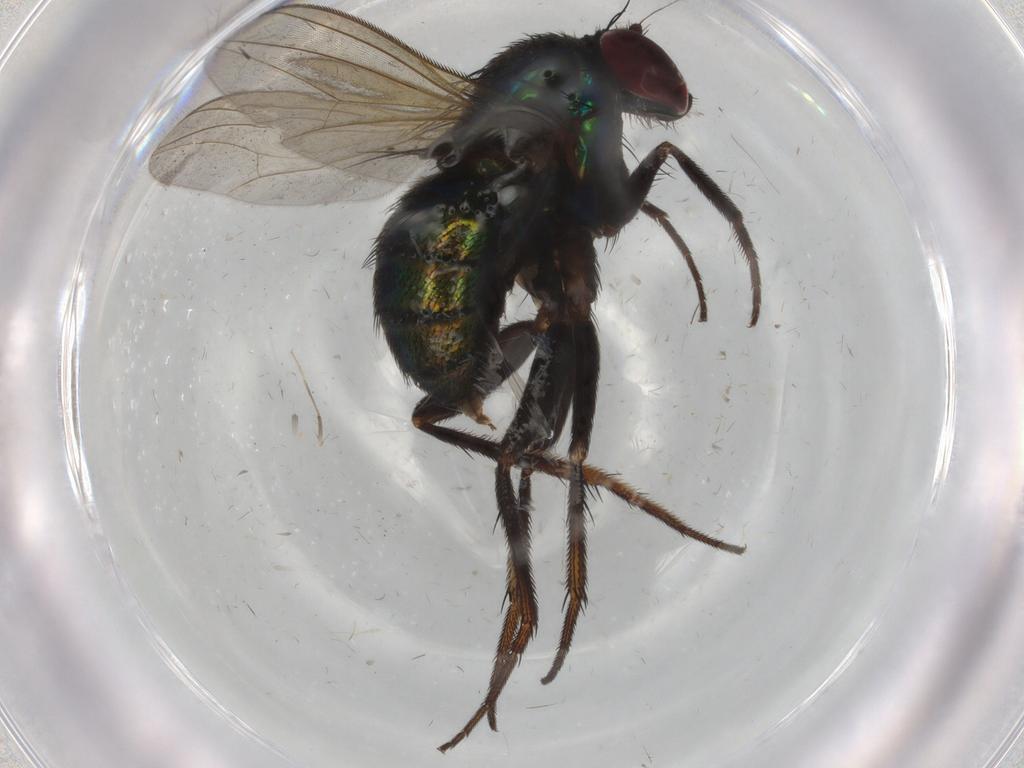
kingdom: Animalia
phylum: Arthropoda
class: Insecta
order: Diptera
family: Dolichopodidae
